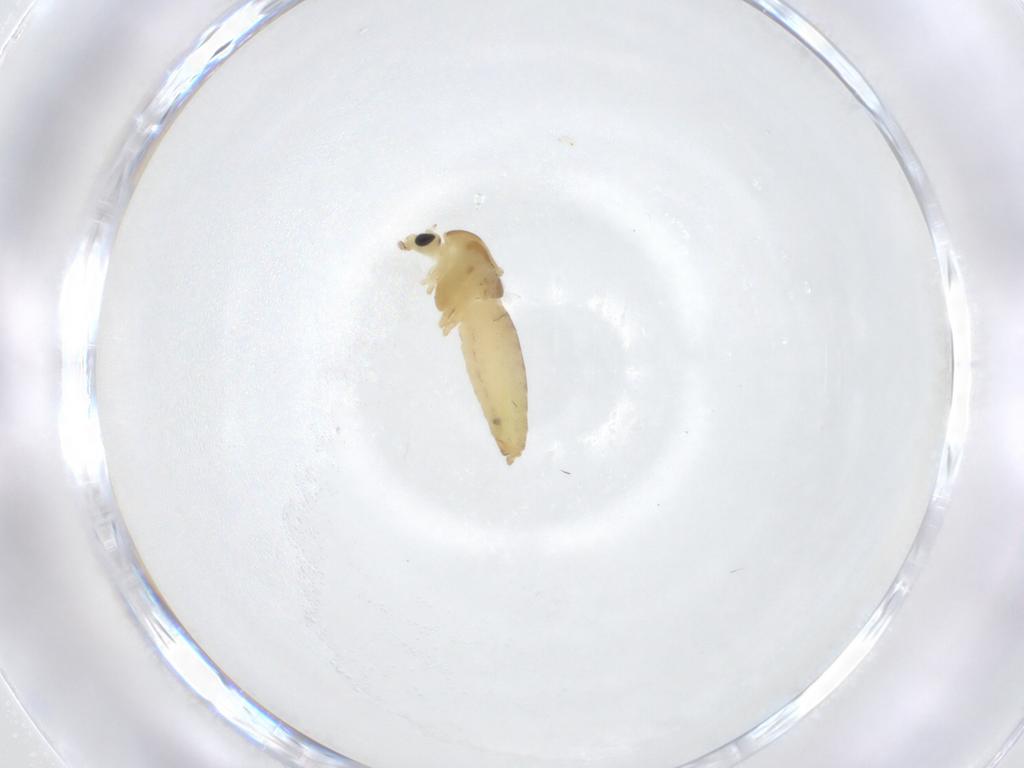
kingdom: Animalia
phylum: Arthropoda
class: Insecta
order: Diptera
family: Chironomidae
